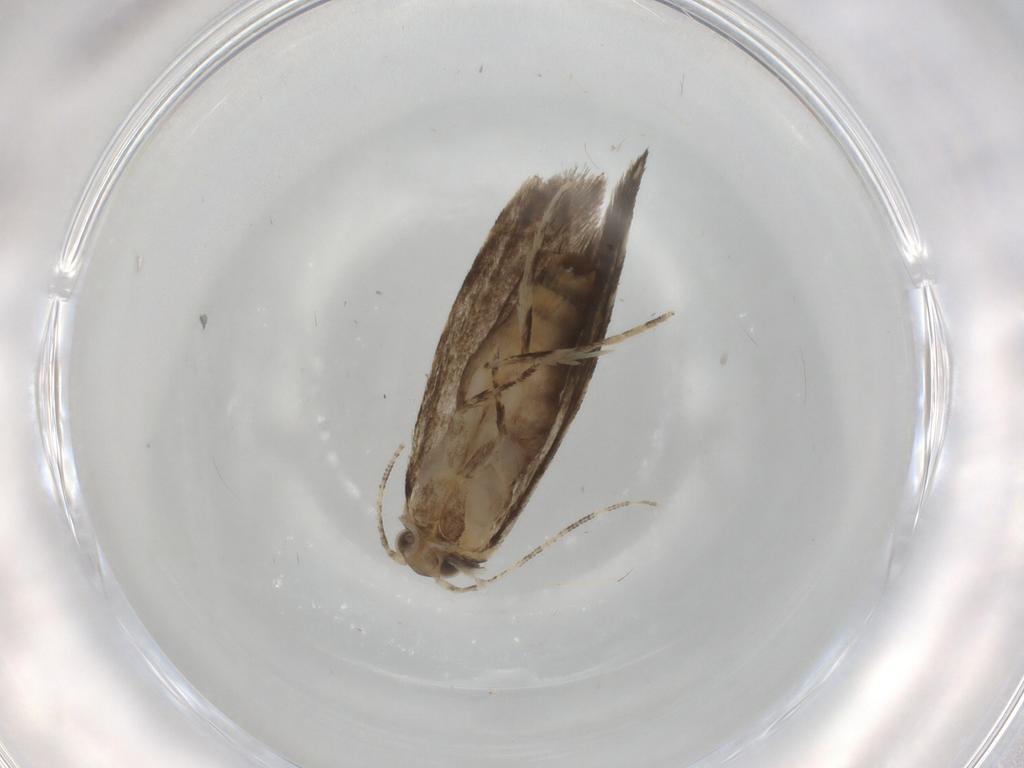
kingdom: Animalia
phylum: Arthropoda
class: Insecta
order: Lepidoptera
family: Tineidae
